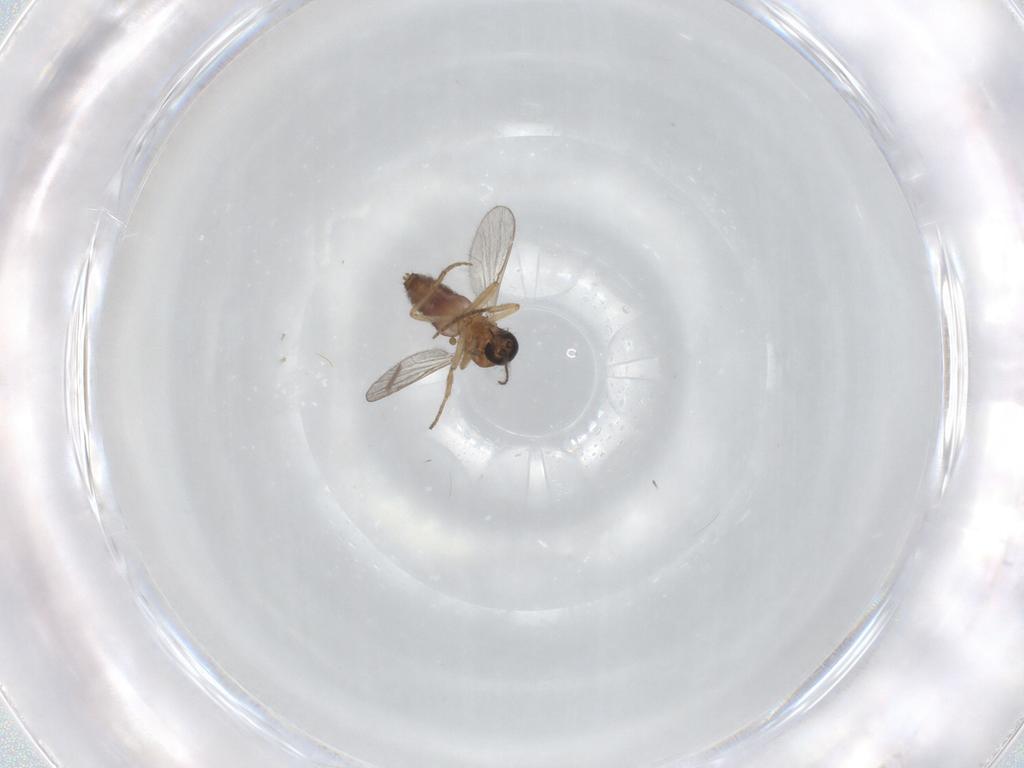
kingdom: Animalia
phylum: Arthropoda
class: Insecta
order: Diptera
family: Chironomidae
